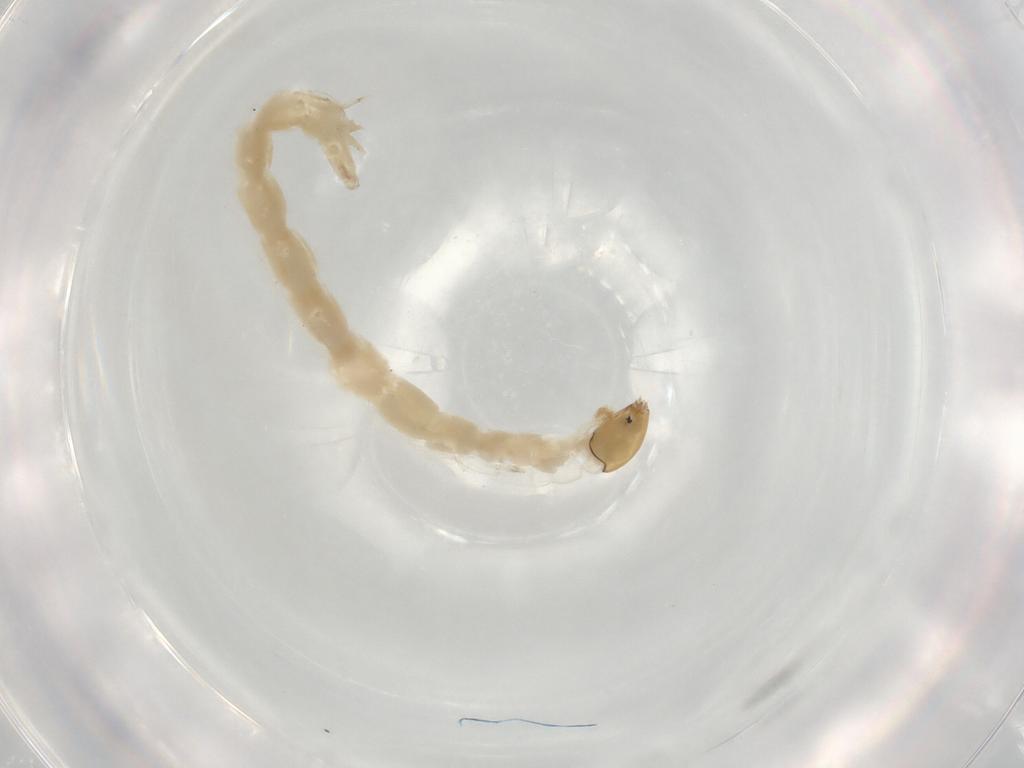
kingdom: Animalia
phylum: Arthropoda
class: Insecta
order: Diptera
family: Chironomidae
